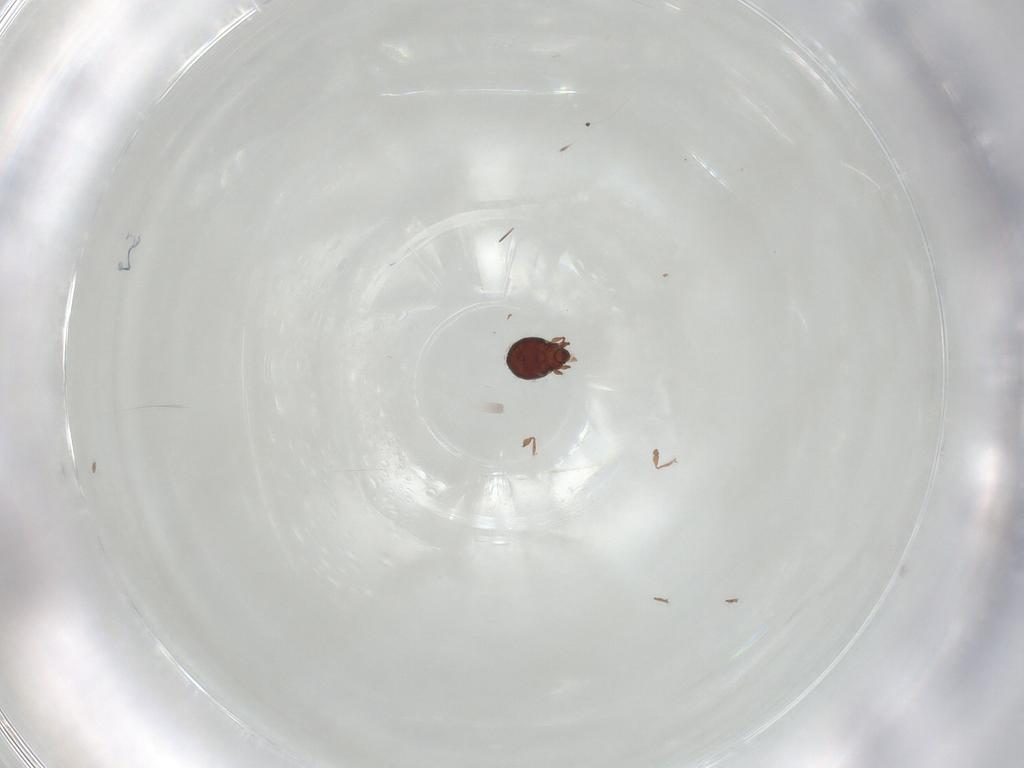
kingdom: Animalia
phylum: Arthropoda
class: Arachnida
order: Sarcoptiformes
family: Scheloribatidae
